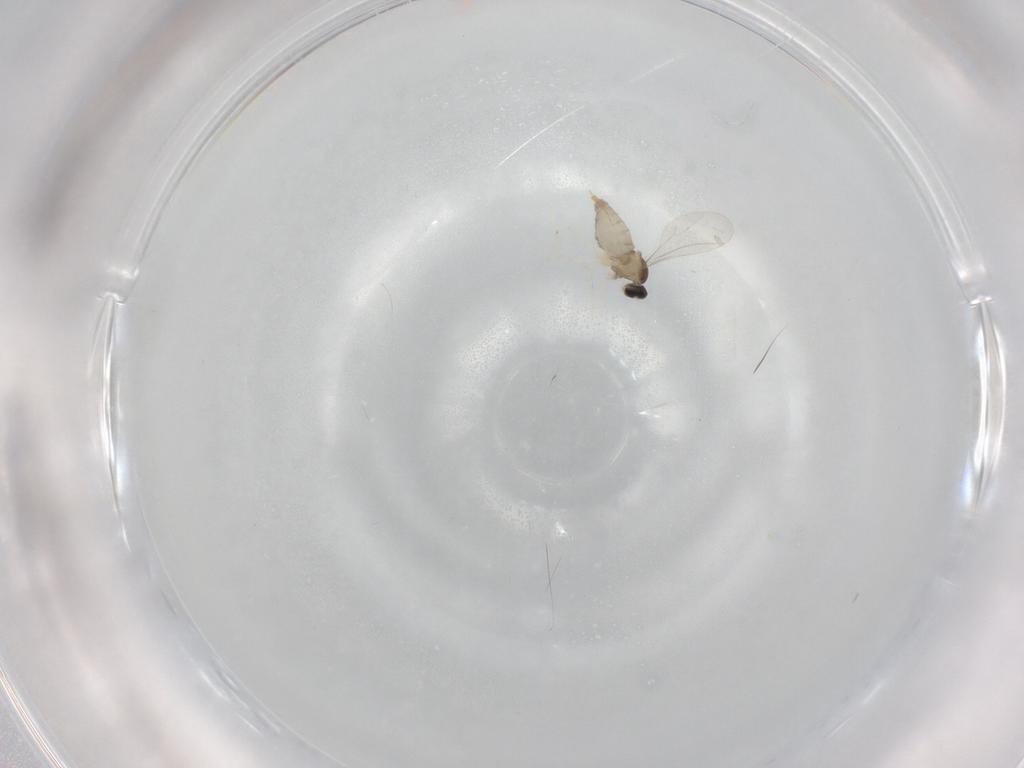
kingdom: Animalia
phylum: Arthropoda
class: Insecta
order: Diptera
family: Cecidomyiidae
